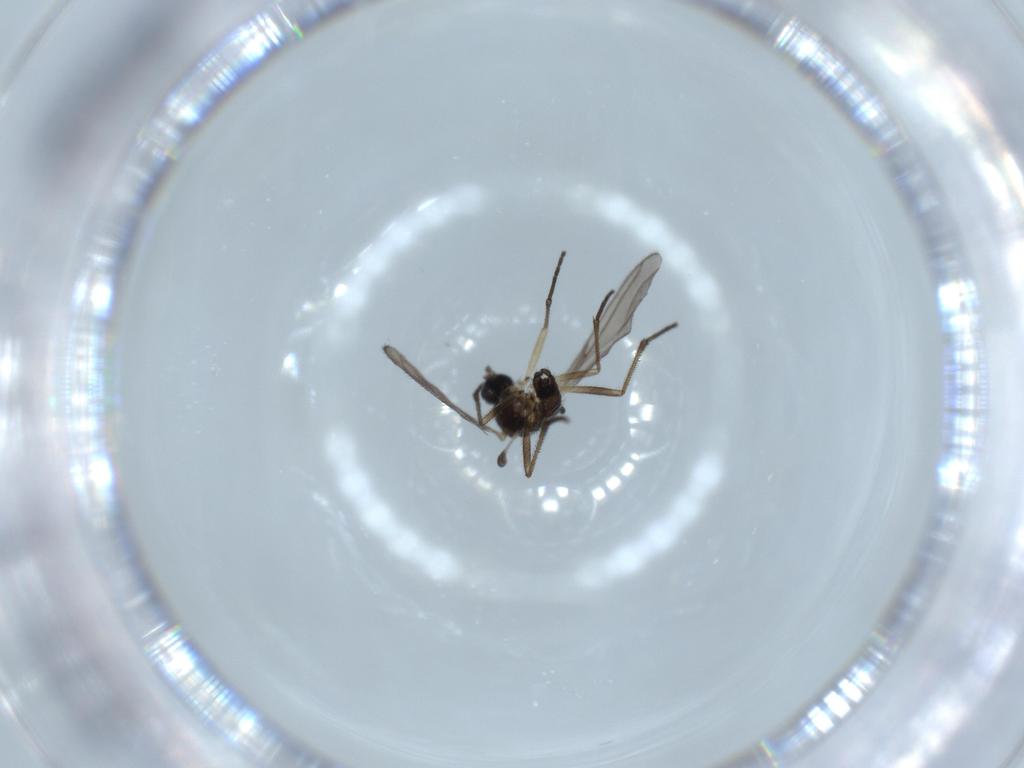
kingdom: Animalia
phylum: Arthropoda
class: Insecta
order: Diptera
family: Sciaridae
